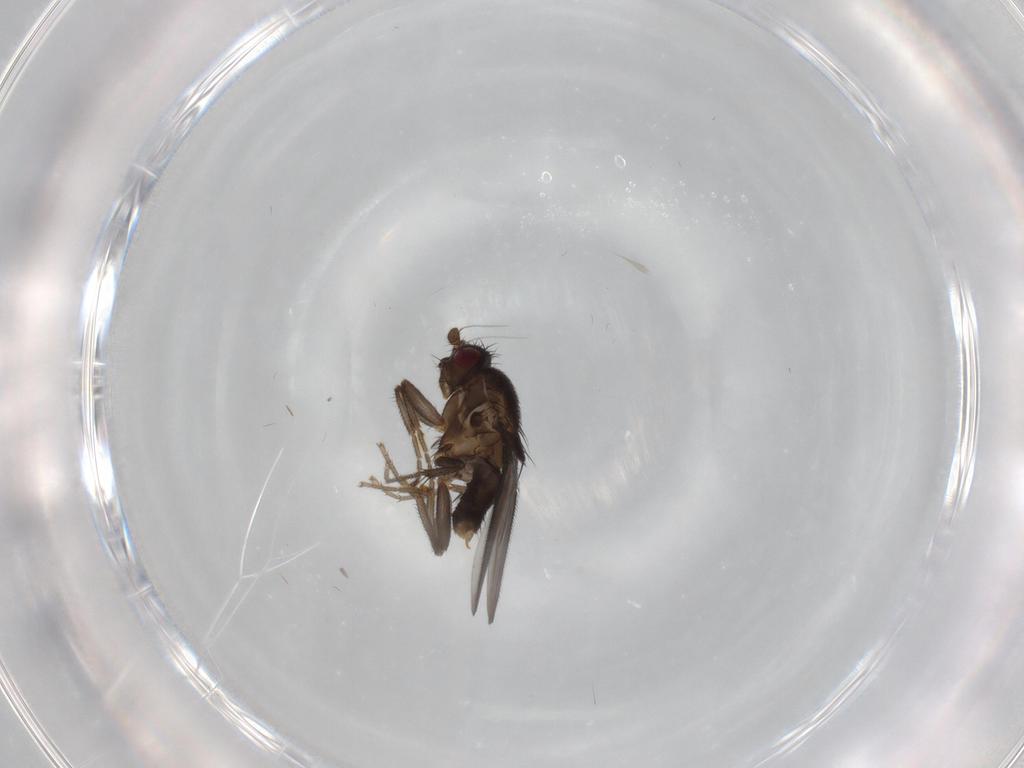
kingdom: Animalia
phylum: Arthropoda
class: Insecta
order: Diptera
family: Sphaeroceridae
